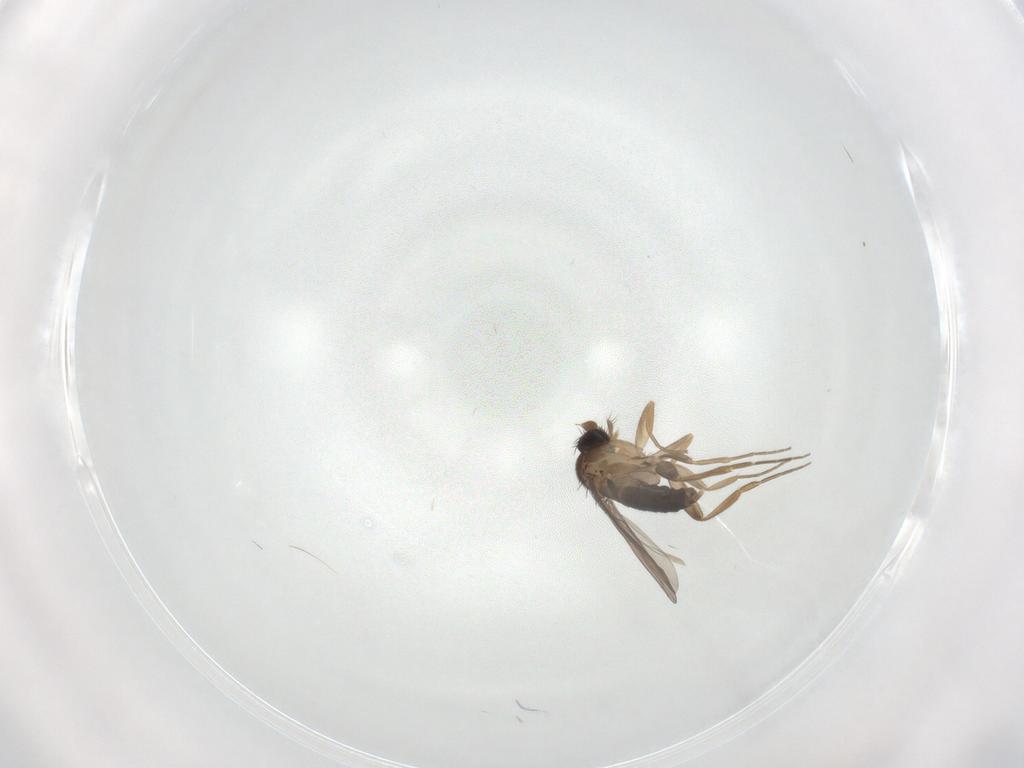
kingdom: Animalia
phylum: Arthropoda
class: Insecta
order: Diptera
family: Phoridae
